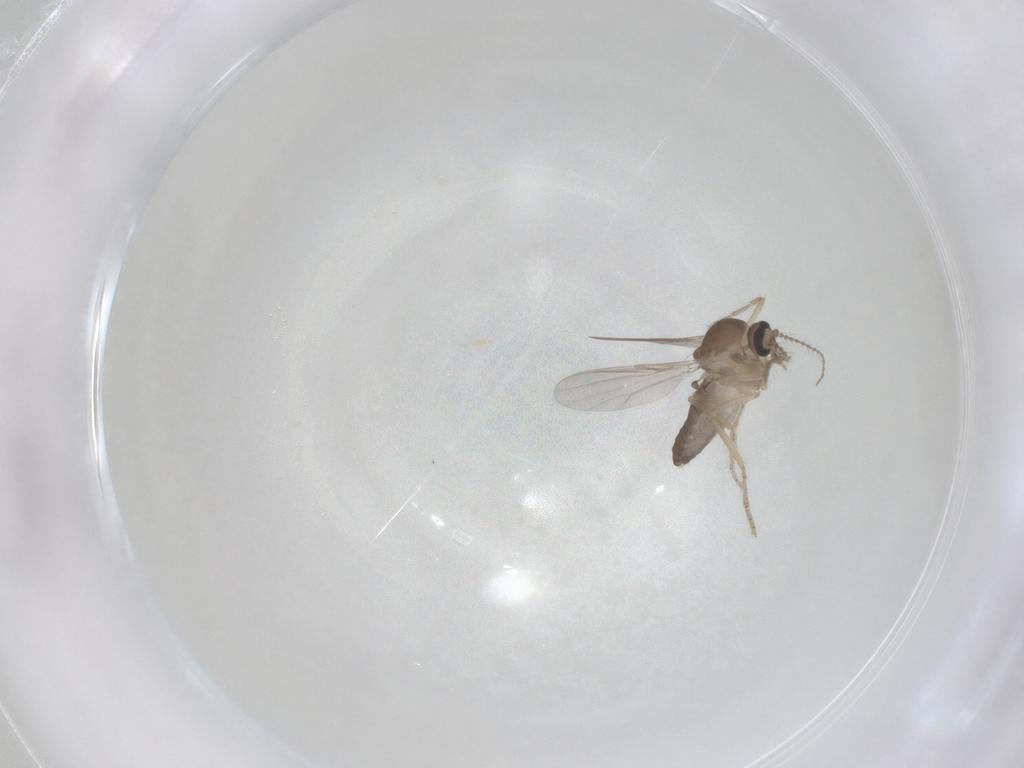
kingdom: Animalia
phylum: Arthropoda
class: Insecta
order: Diptera
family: Ceratopogonidae
